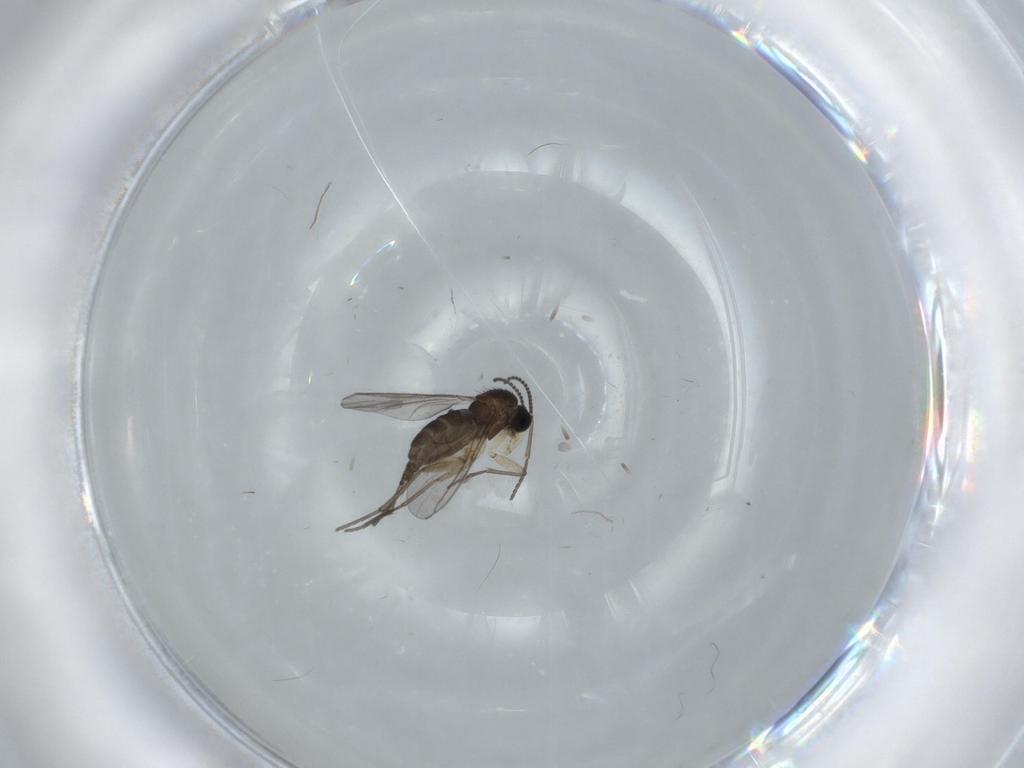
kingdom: Animalia
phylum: Arthropoda
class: Insecta
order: Diptera
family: Sciaridae
